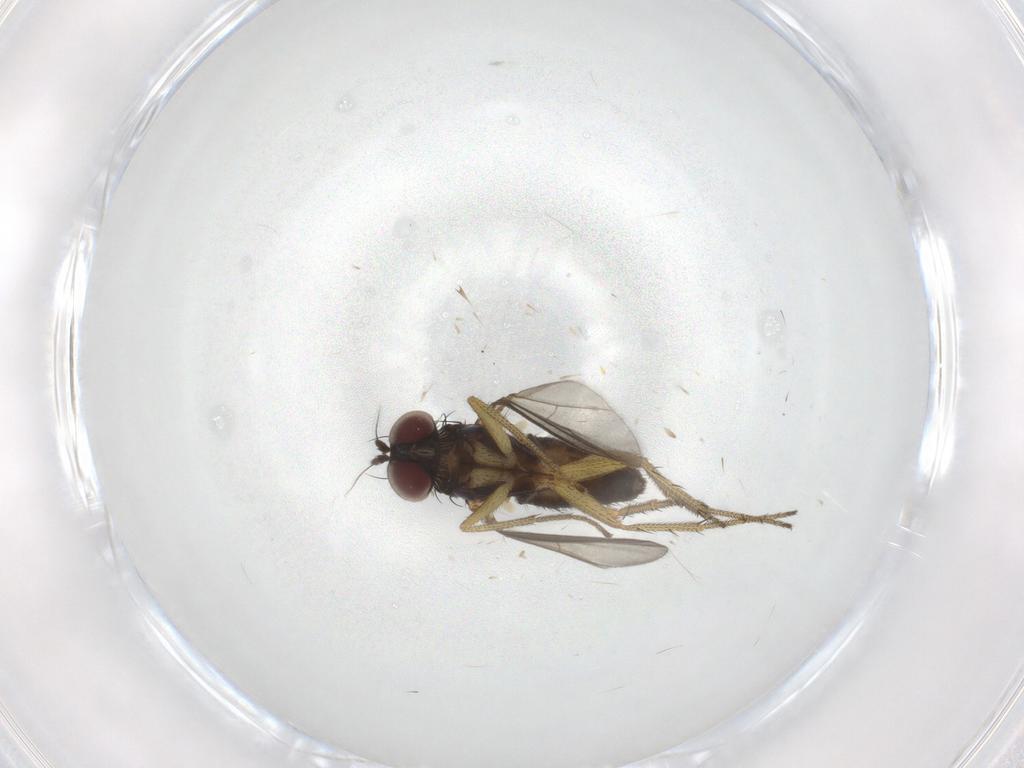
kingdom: Animalia
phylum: Arthropoda
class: Insecta
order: Diptera
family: Dolichopodidae
